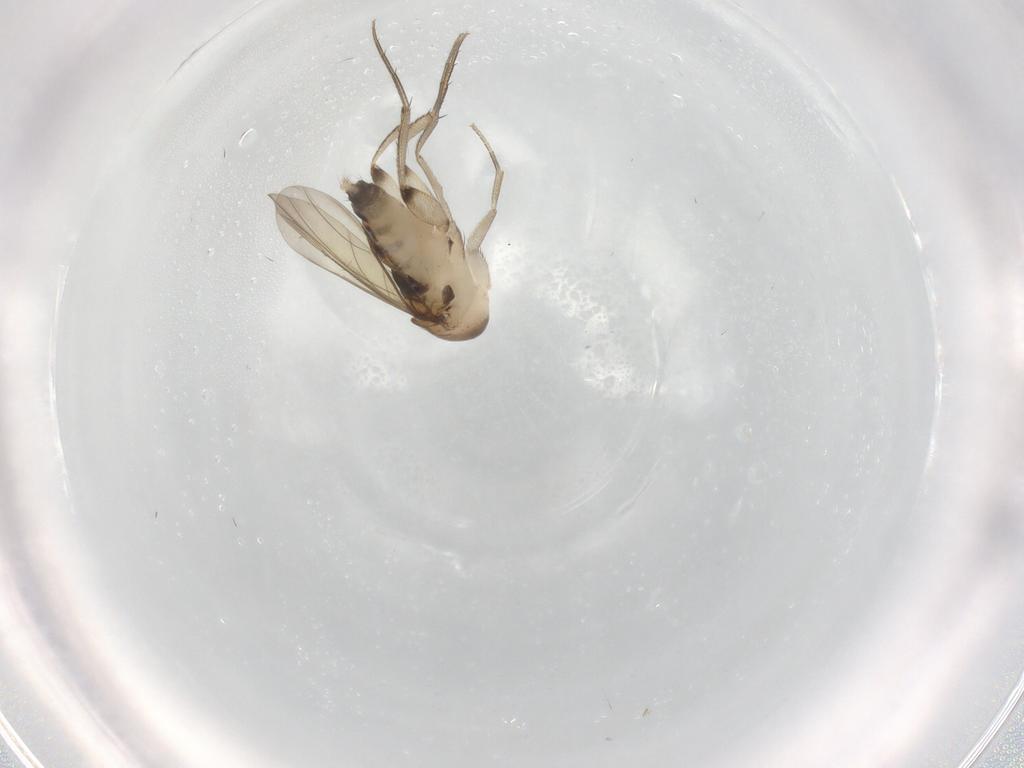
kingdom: Animalia
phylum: Arthropoda
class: Insecta
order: Diptera
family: Phoridae
